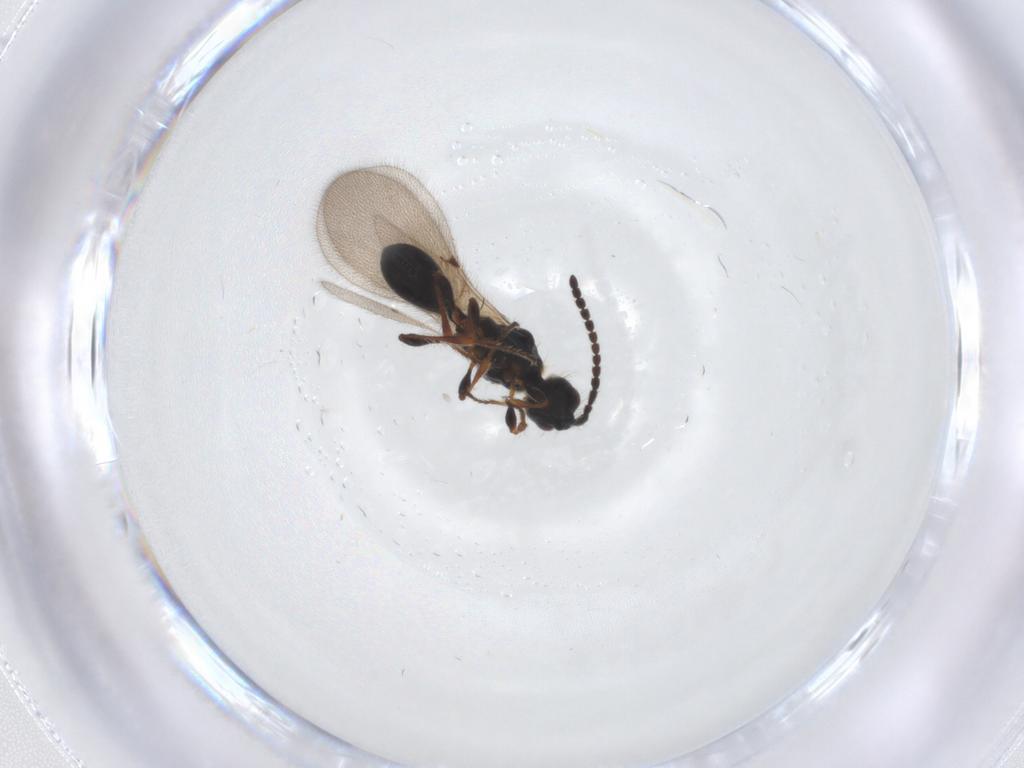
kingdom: Animalia
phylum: Arthropoda
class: Insecta
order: Hymenoptera
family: Diapriidae
